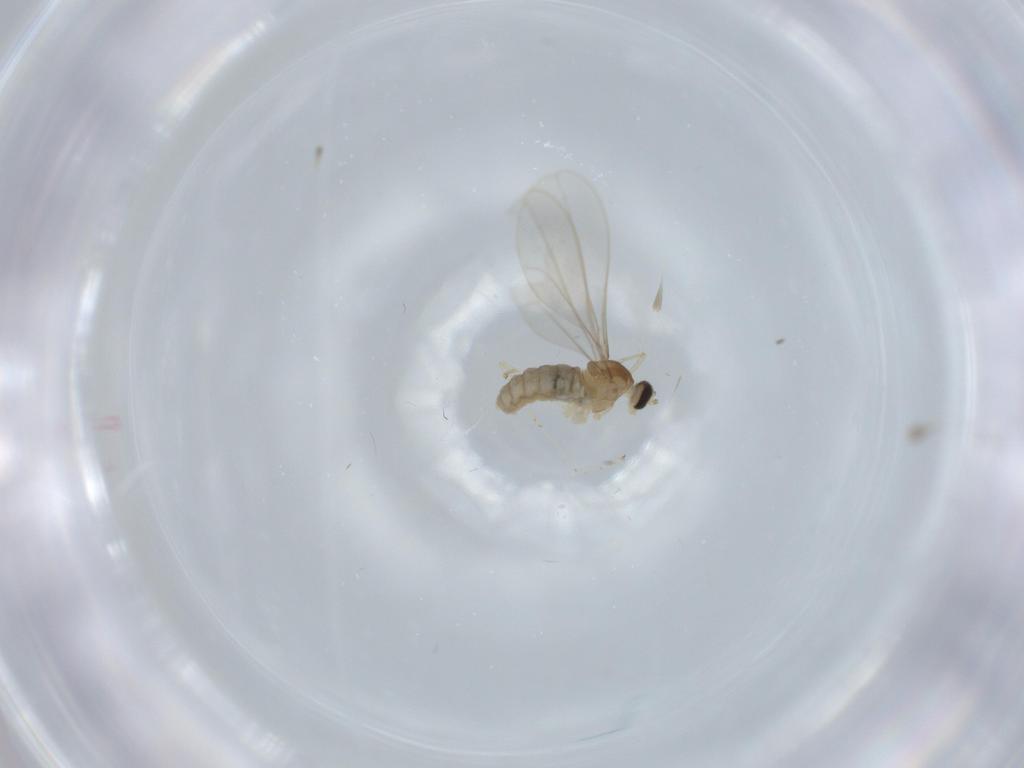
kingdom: Animalia
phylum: Arthropoda
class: Insecta
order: Diptera
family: Cecidomyiidae
